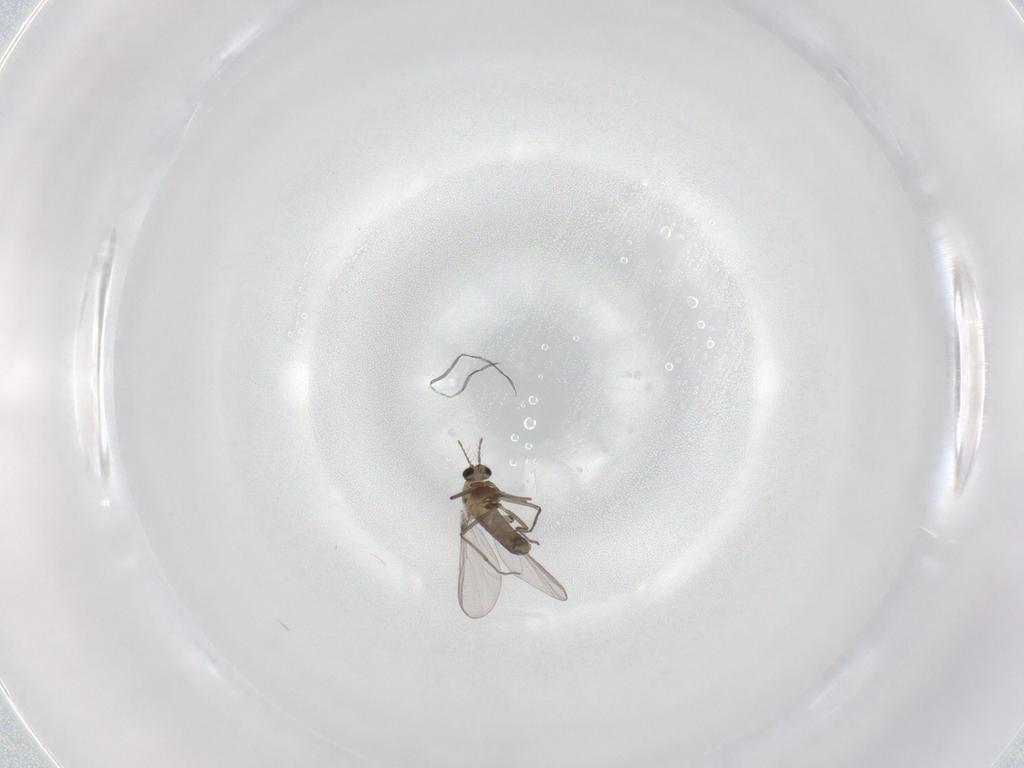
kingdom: Animalia
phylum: Arthropoda
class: Insecta
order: Diptera
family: Chironomidae
